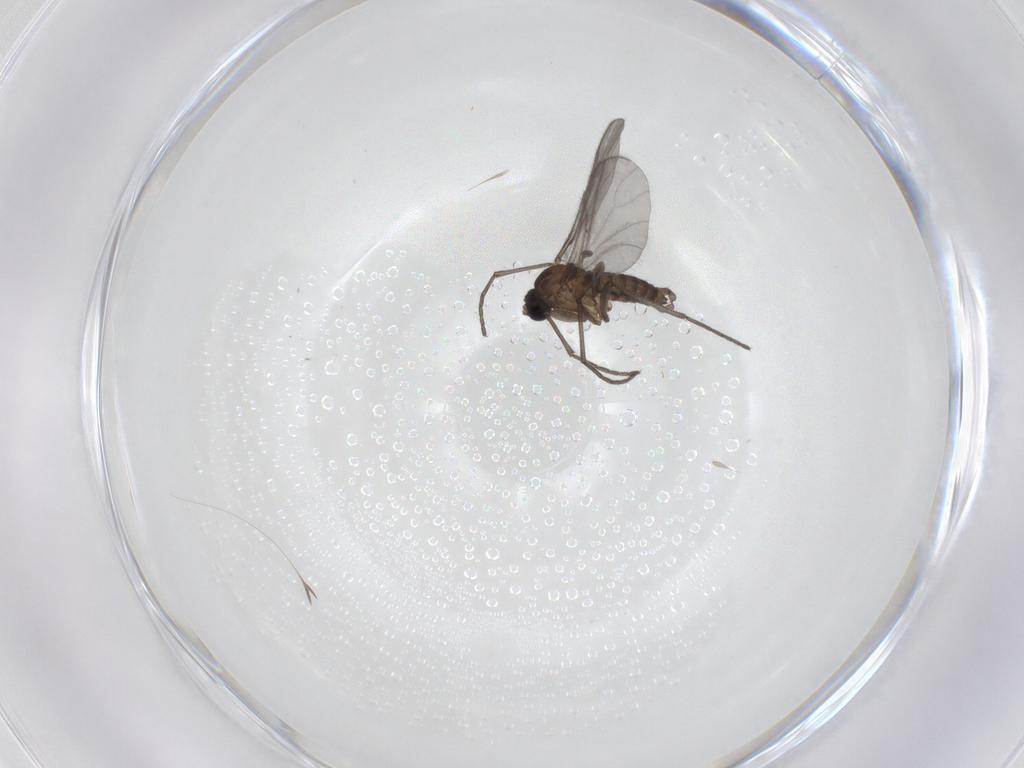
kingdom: Animalia
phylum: Arthropoda
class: Insecta
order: Diptera
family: Sciaridae
